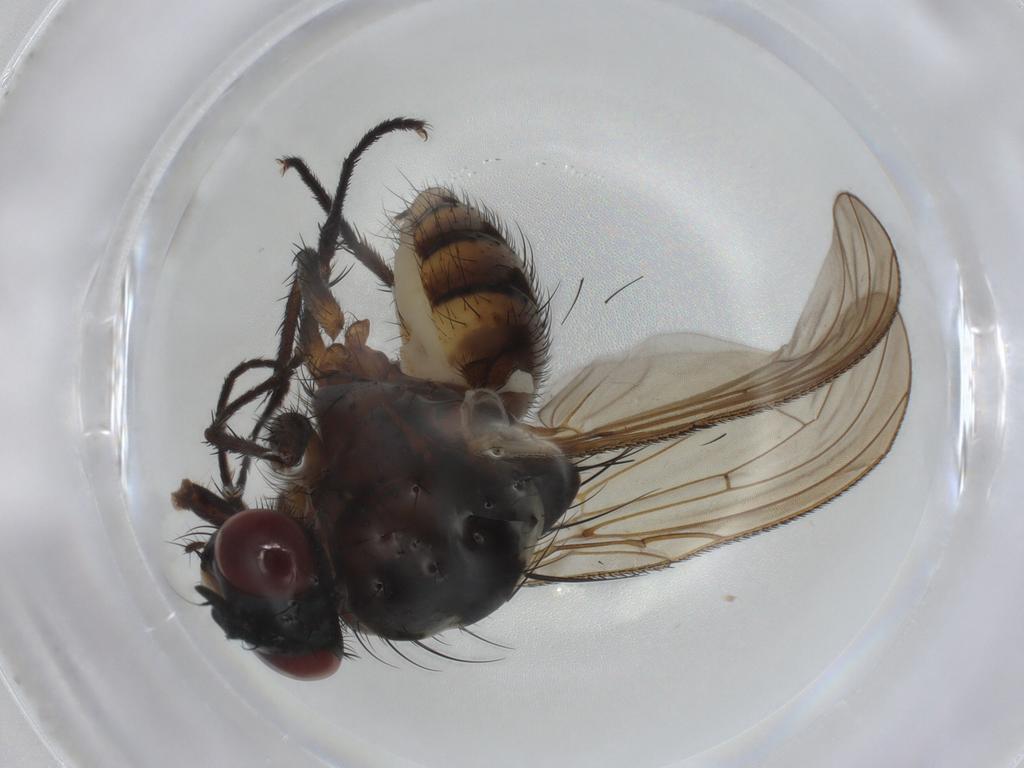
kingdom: Animalia
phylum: Arthropoda
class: Insecta
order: Diptera
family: Anthomyiidae
